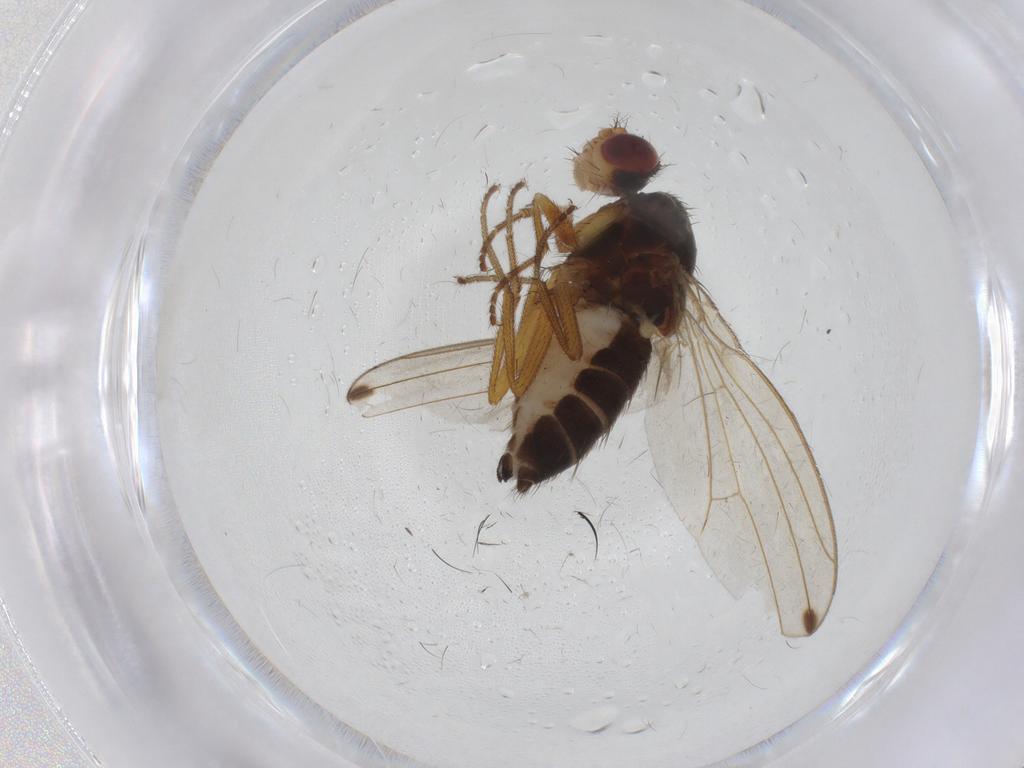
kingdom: Animalia
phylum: Arthropoda
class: Insecta
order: Diptera
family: Drosophilidae
